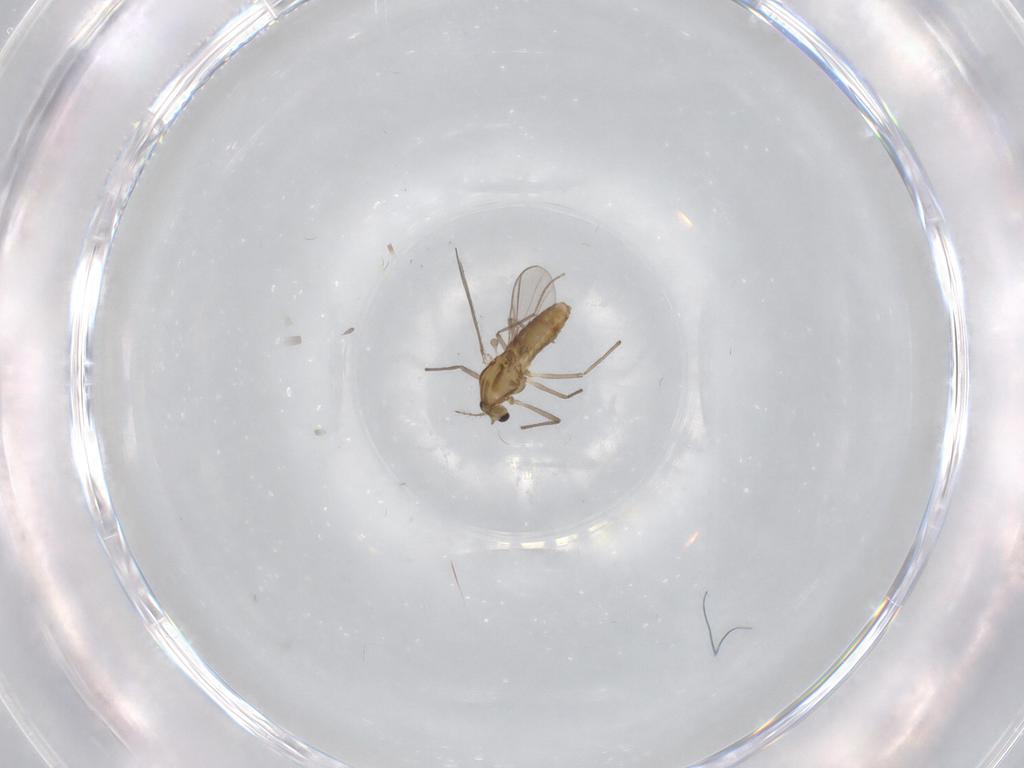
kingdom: Animalia
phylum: Arthropoda
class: Insecta
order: Diptera
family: Chironomidae
